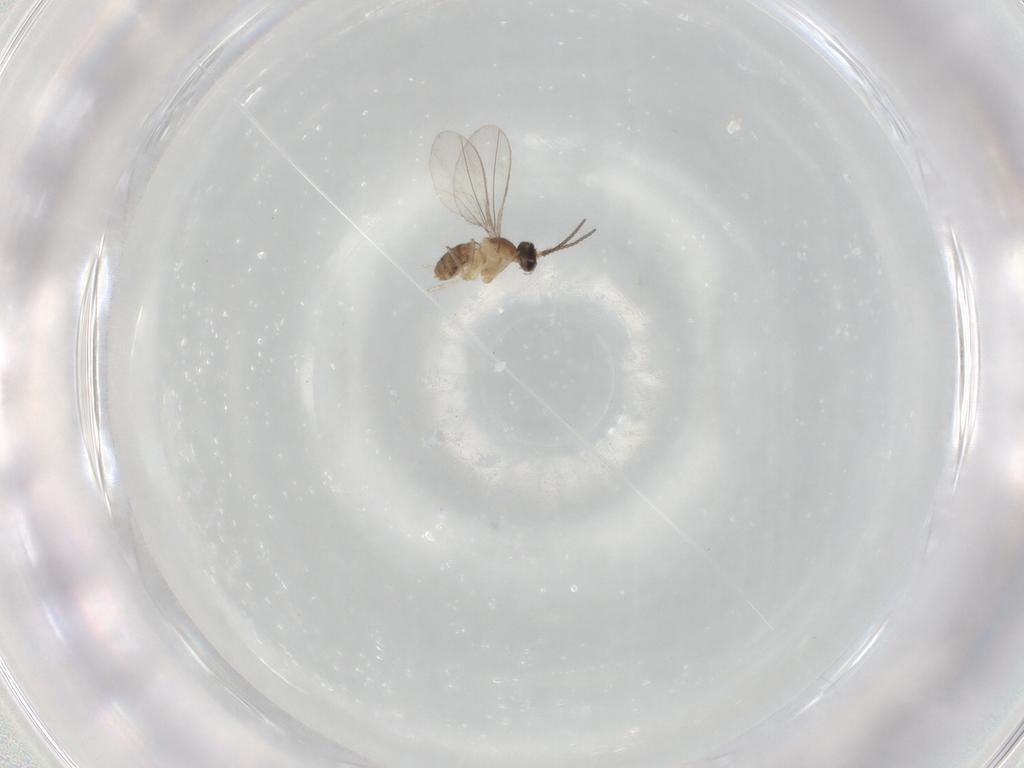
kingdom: Animalia
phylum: Arthropoda
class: Insecta
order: Diptera
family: Cecidomyiidae
